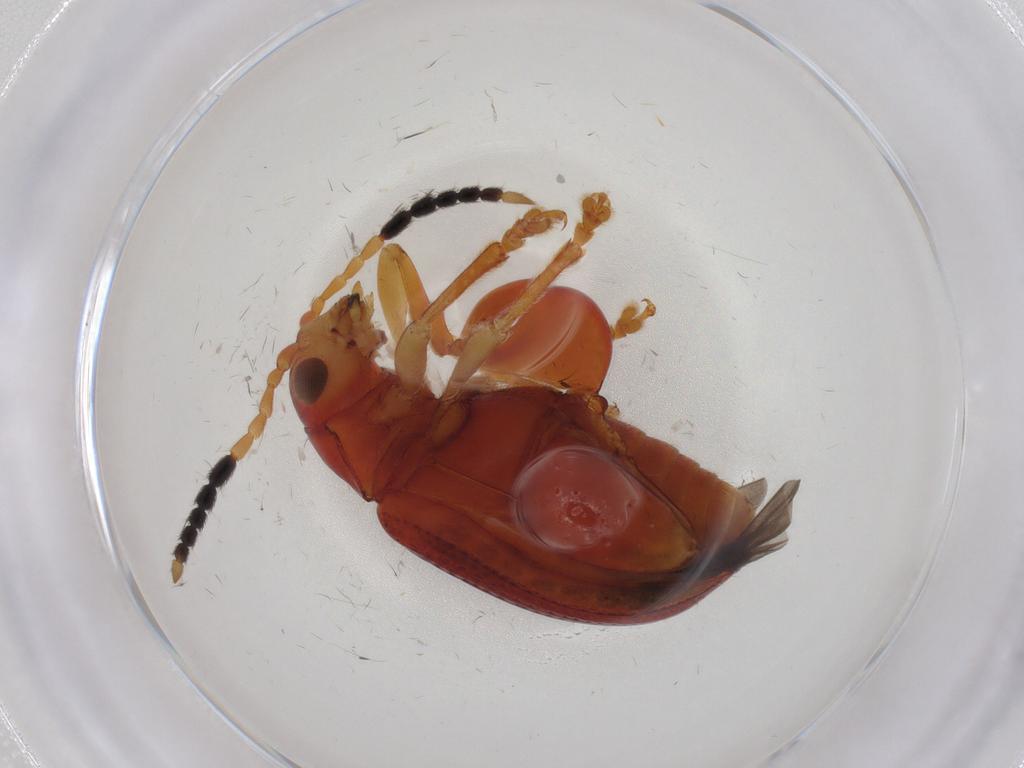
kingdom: Animalia
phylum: Arthropoda
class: Insecta
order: Coleoptera
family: Chrysomelidae
